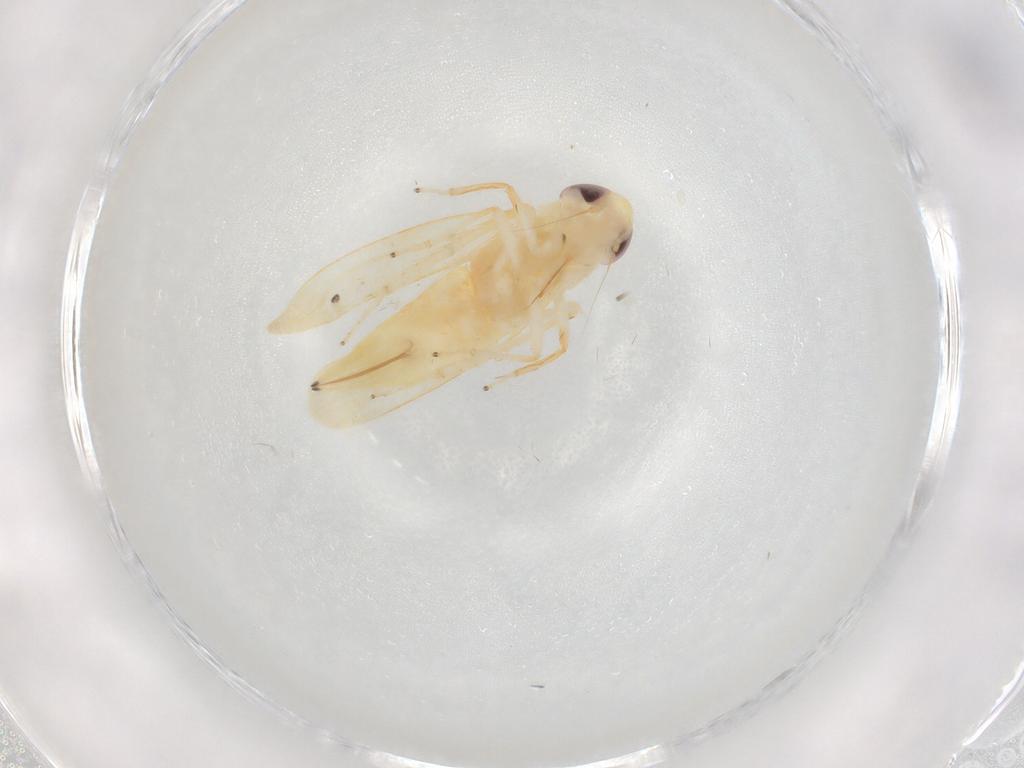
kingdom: Animalia
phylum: Arthropoda
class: Insecta
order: Hemiptera
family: Cicadellidae
